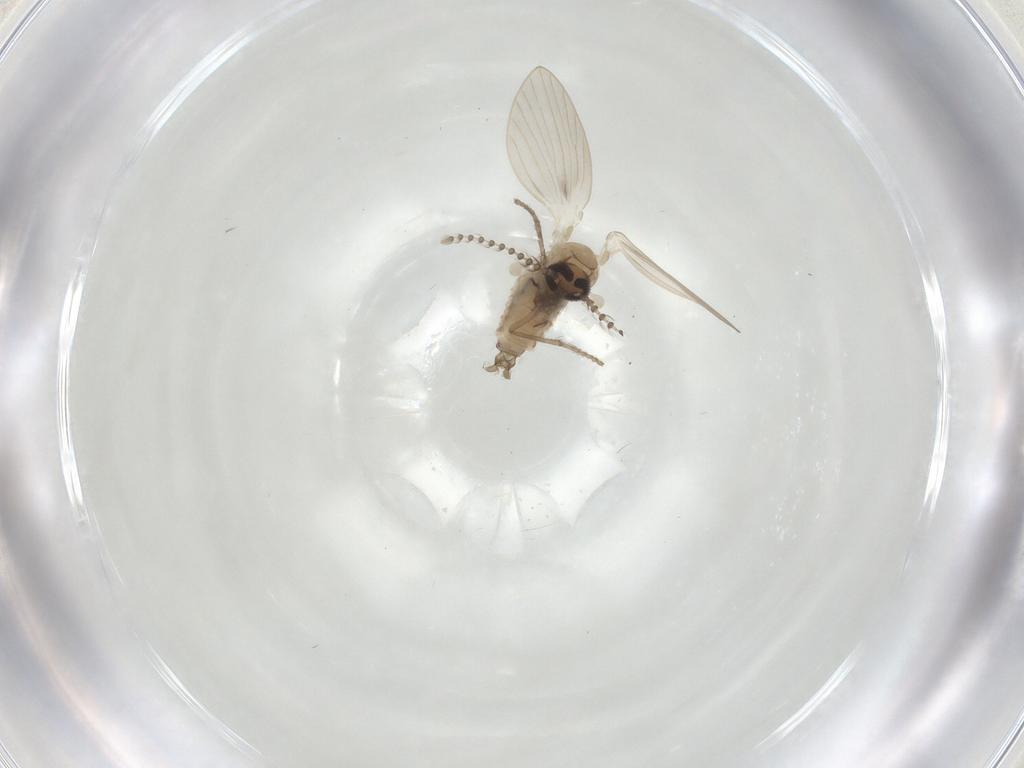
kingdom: Animalia
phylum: Arthropoda
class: Insecta
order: Diptera
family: Psychodidae
